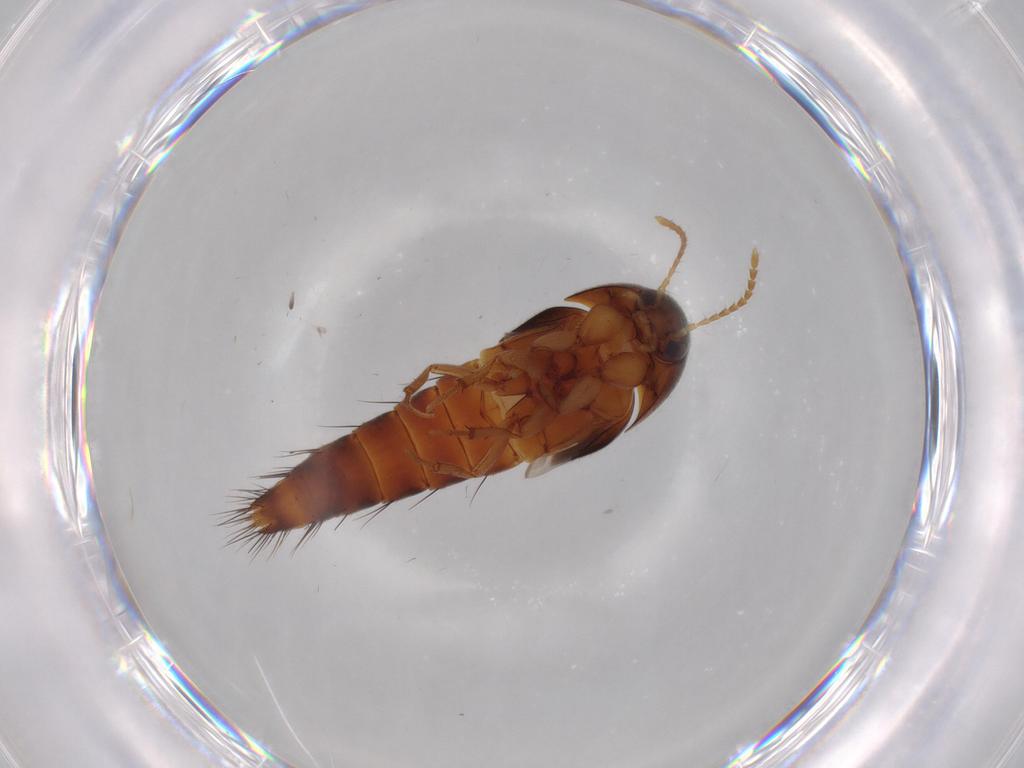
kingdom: Animalia
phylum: Arthropoda
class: Insecta
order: Coleoptera
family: Staphylinidae
